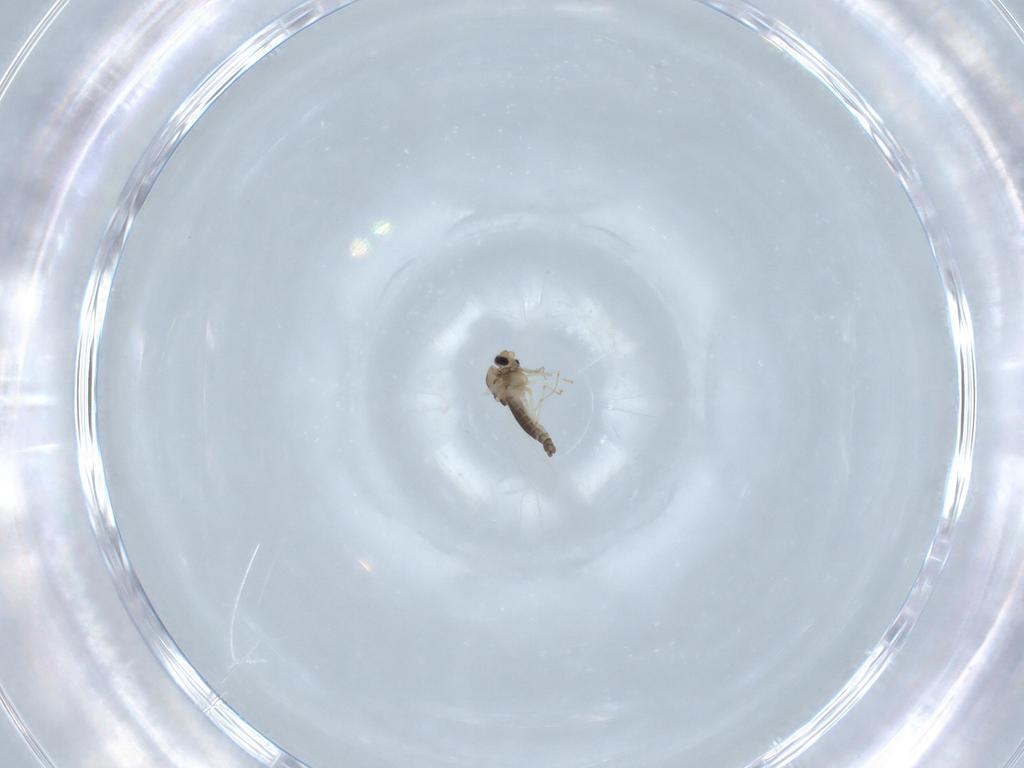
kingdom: Animalia
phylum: Arthropoda
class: Insecta
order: Diptera
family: Chironomidae
